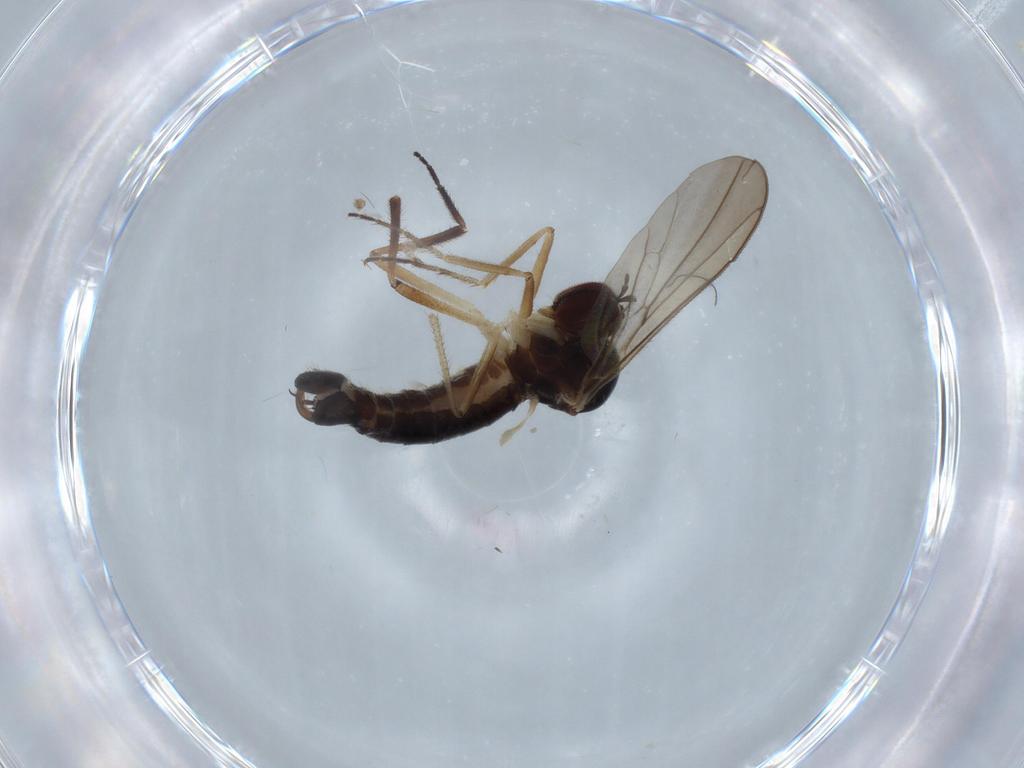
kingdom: Animalia
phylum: Arthropoda
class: Insecta
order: Diptera
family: Hybotidae
